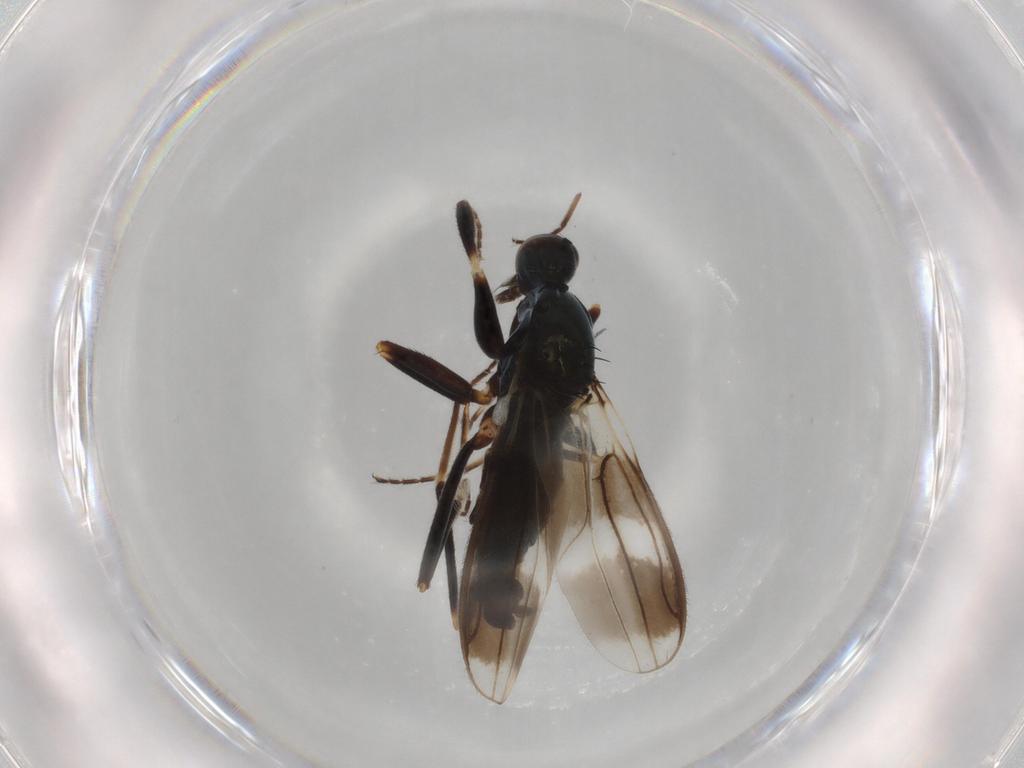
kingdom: Animalia
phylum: Arthropoda
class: Insecta
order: Diptera
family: Hybotidae
